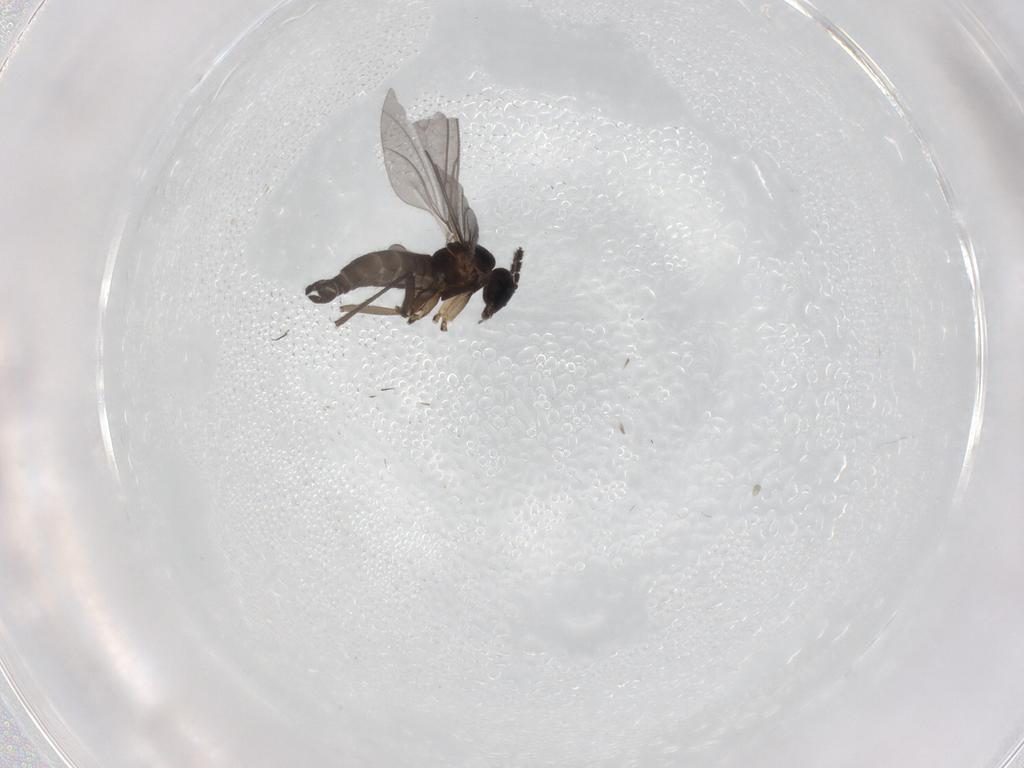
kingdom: Animalia
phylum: Arthropoda
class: Insecta
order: Diptera
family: Sciaridae
